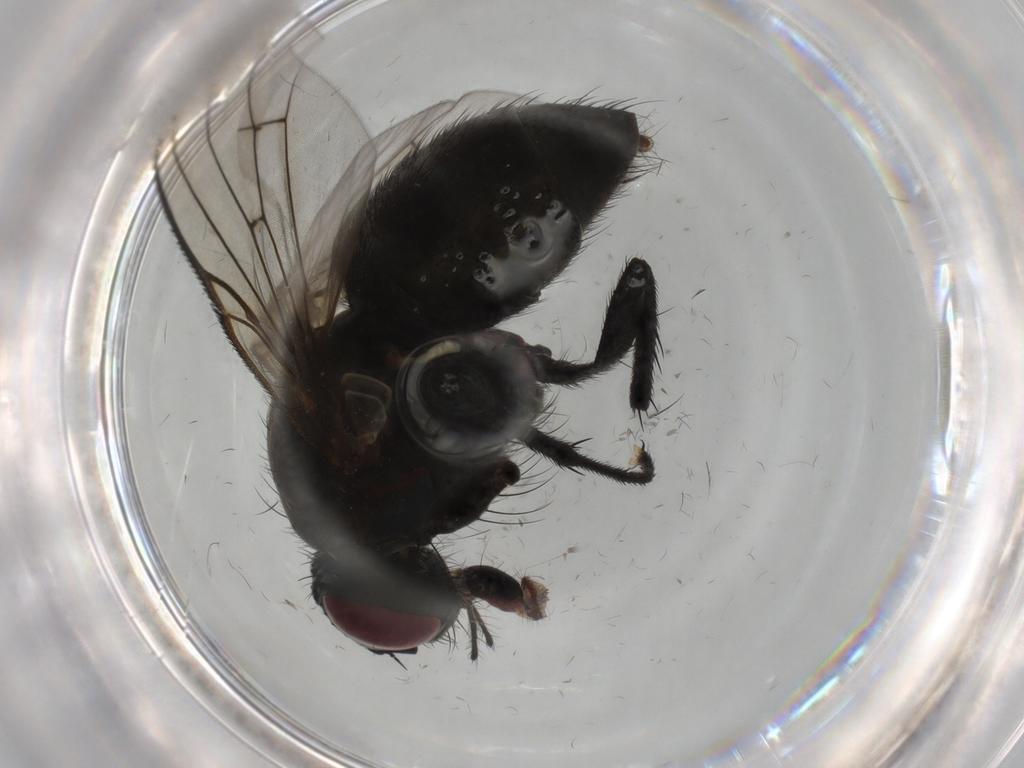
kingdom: Animalia
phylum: Arthropoda
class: Insecta
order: Diptera
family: Muscidae
